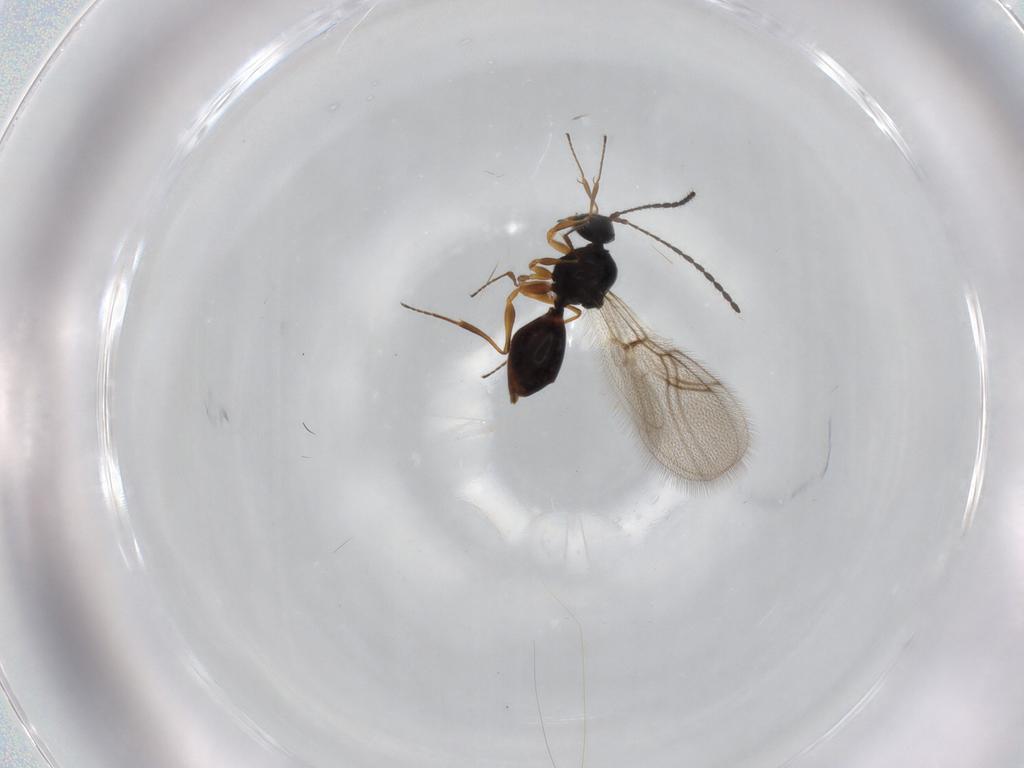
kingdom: Animalia
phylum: Arthropoda
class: Insecta
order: Hymenoptera
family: Figitidae
